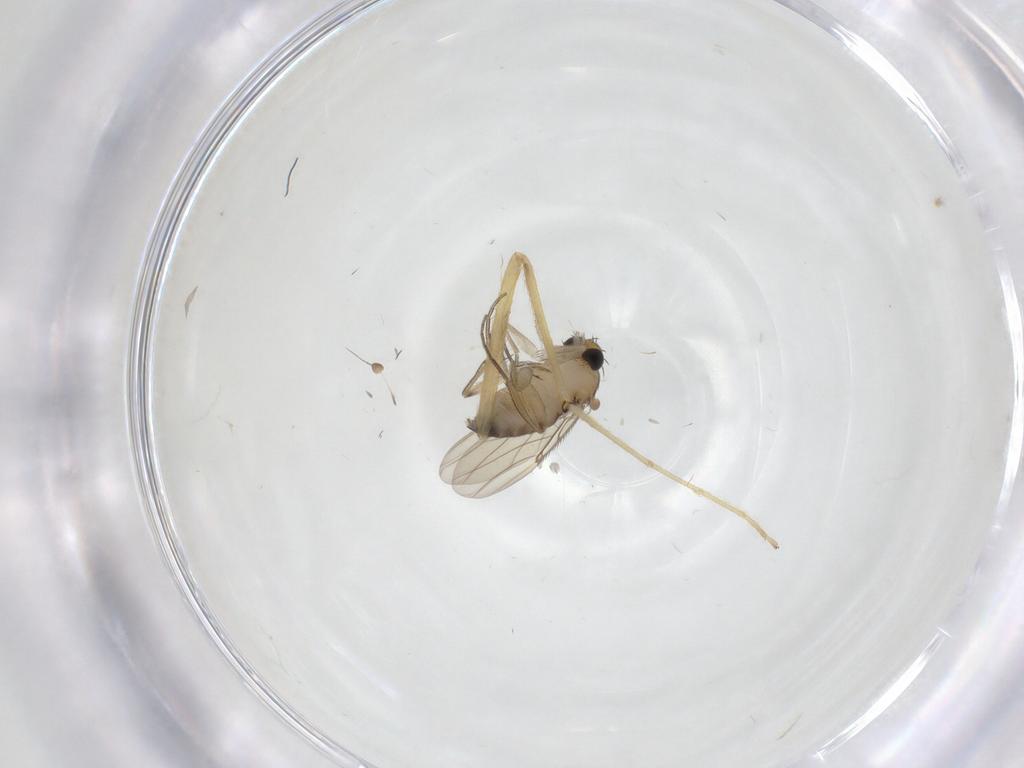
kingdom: Animalia
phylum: Arthropoda
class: Insecta
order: Diptera
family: Phoridae
